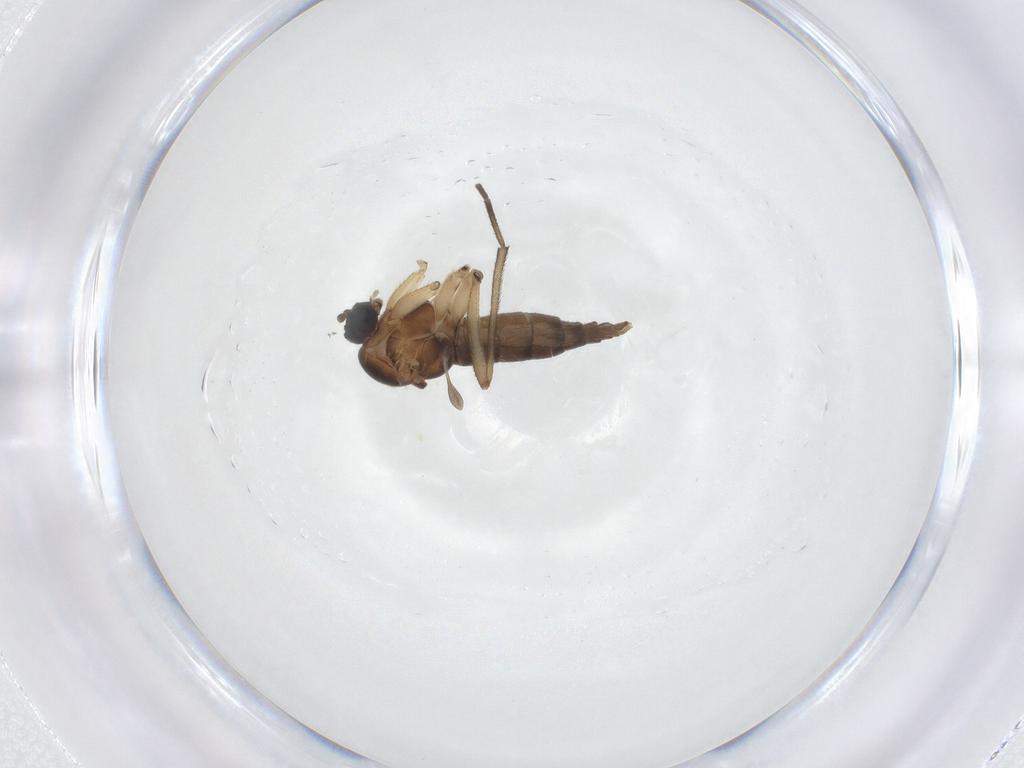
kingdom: Animalia
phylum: Arthropoda
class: Insecta
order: Diptera
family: Sciaridae
